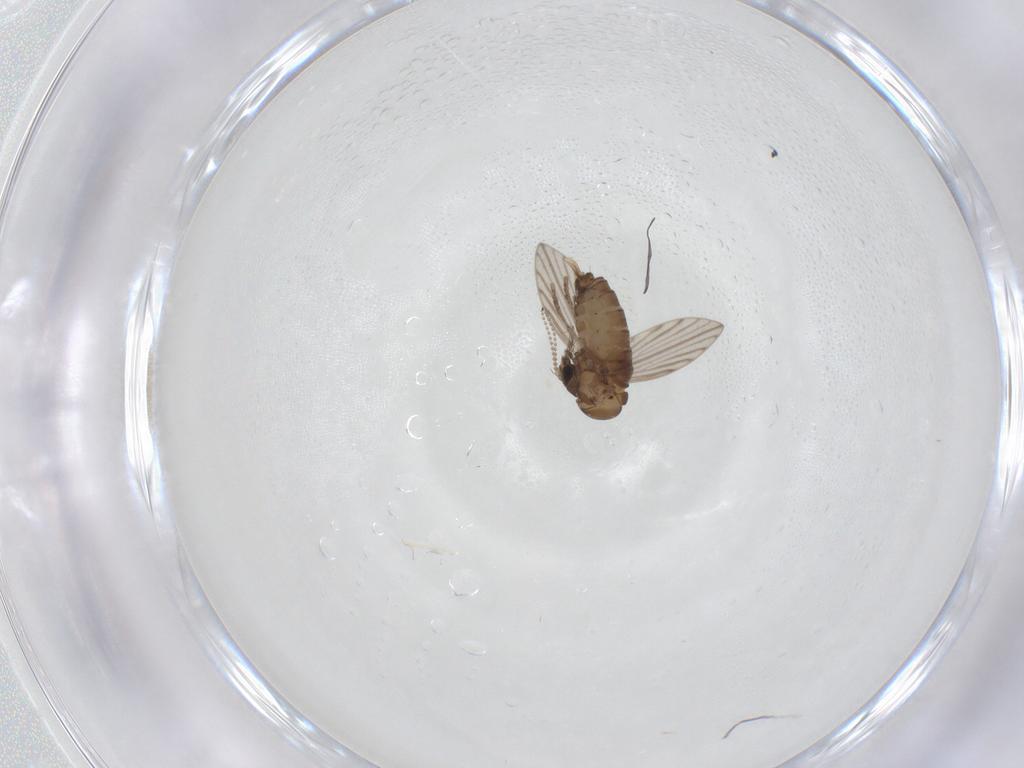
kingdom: Animalia
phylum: Arthropoda
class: Insecta
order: Diptera
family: Psychodidae
